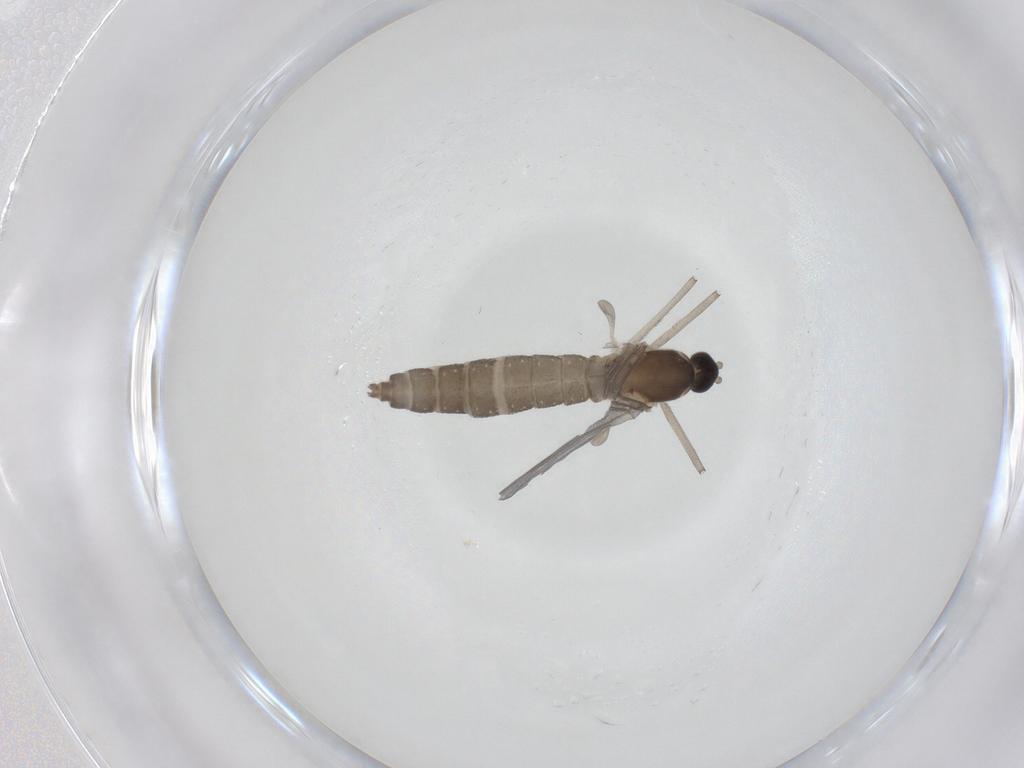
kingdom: Animalia
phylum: Arthropoda
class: Insecta
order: Diptera
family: Cecidomyiidae
